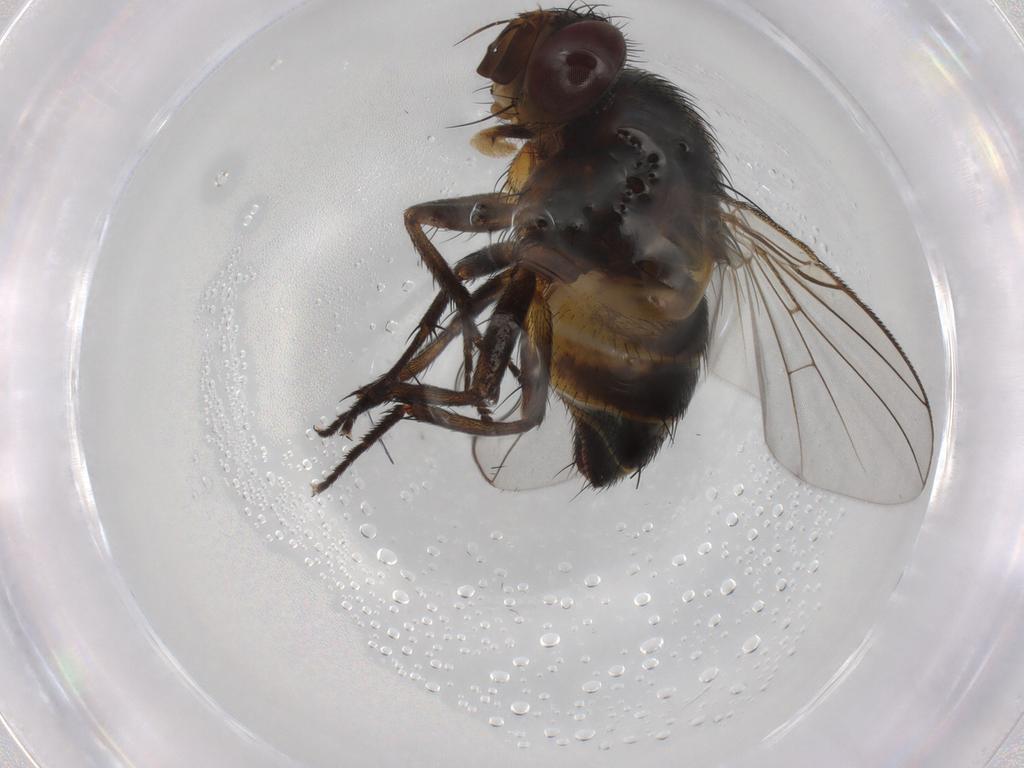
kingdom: Animalia
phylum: Arthropoda
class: Insecta
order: Diptera
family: Tachinidae
